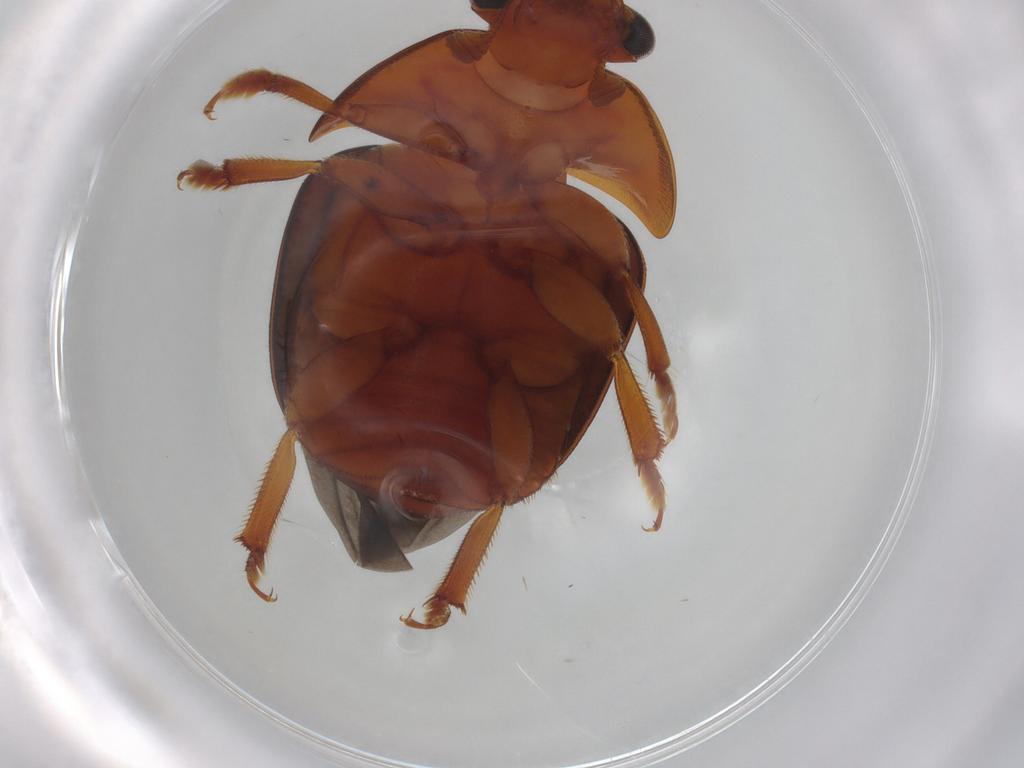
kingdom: Animalia
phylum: Arthropoda
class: Insecta
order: Coleoptera
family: Nitidulidae
